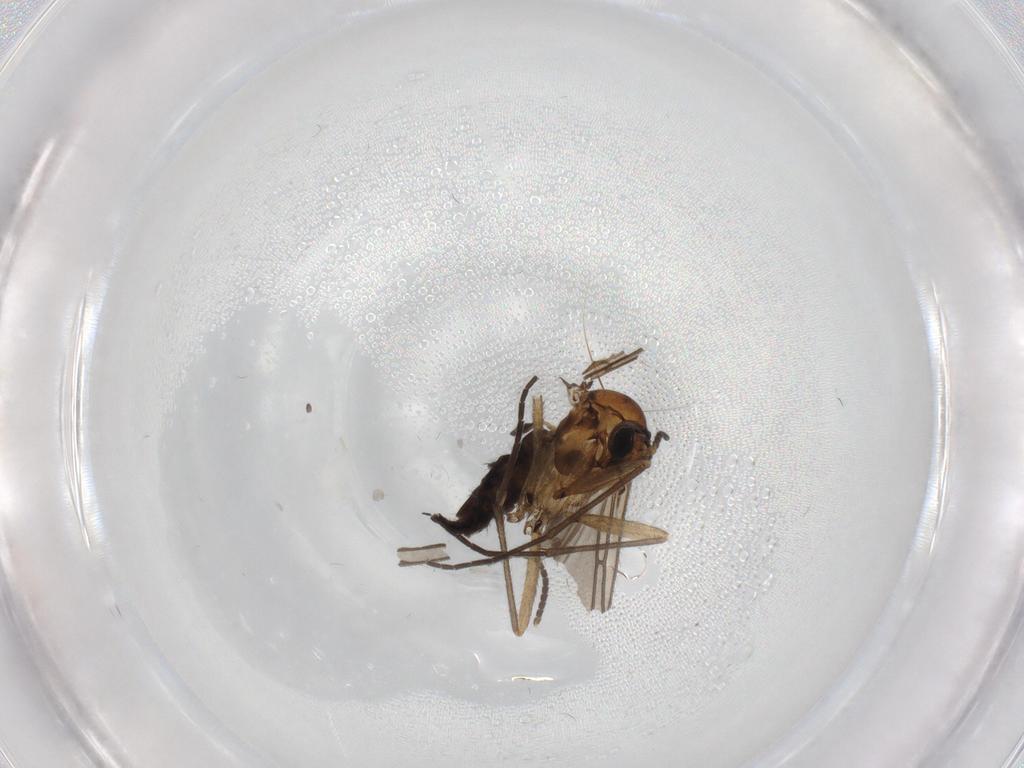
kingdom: Animalia
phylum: Arthropoda
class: Insecta
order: Diptera
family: Sciaridae
